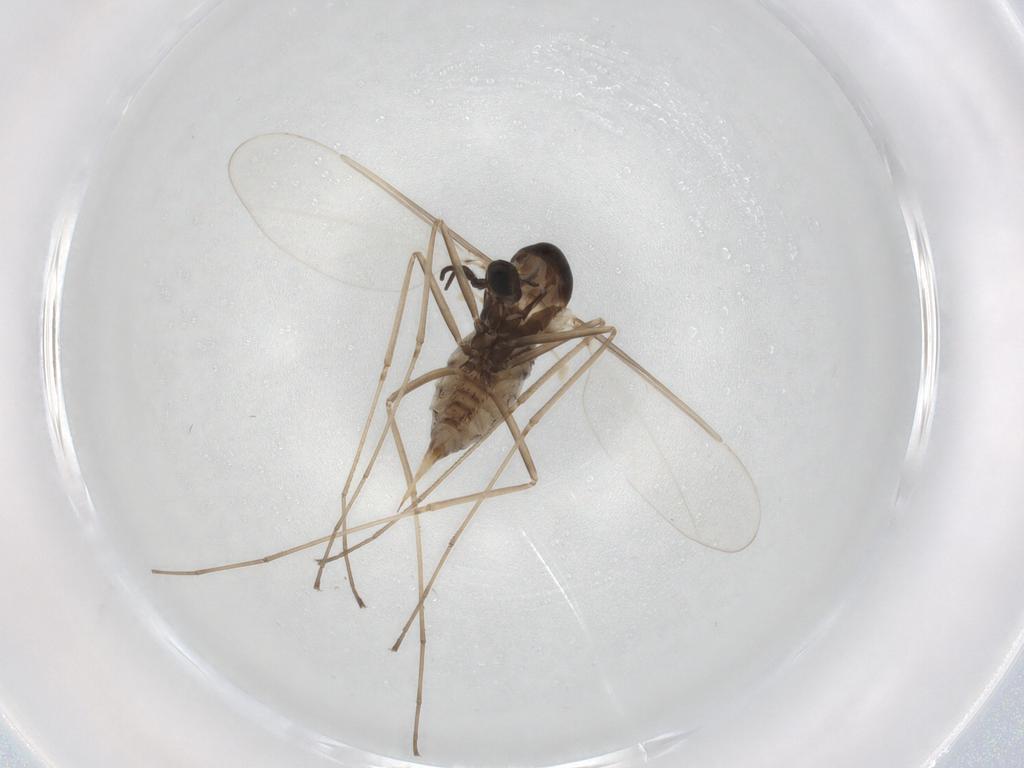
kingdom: Animalia
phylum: Arthropoda
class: Insecta
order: Diptera
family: Cecidomyiidae
